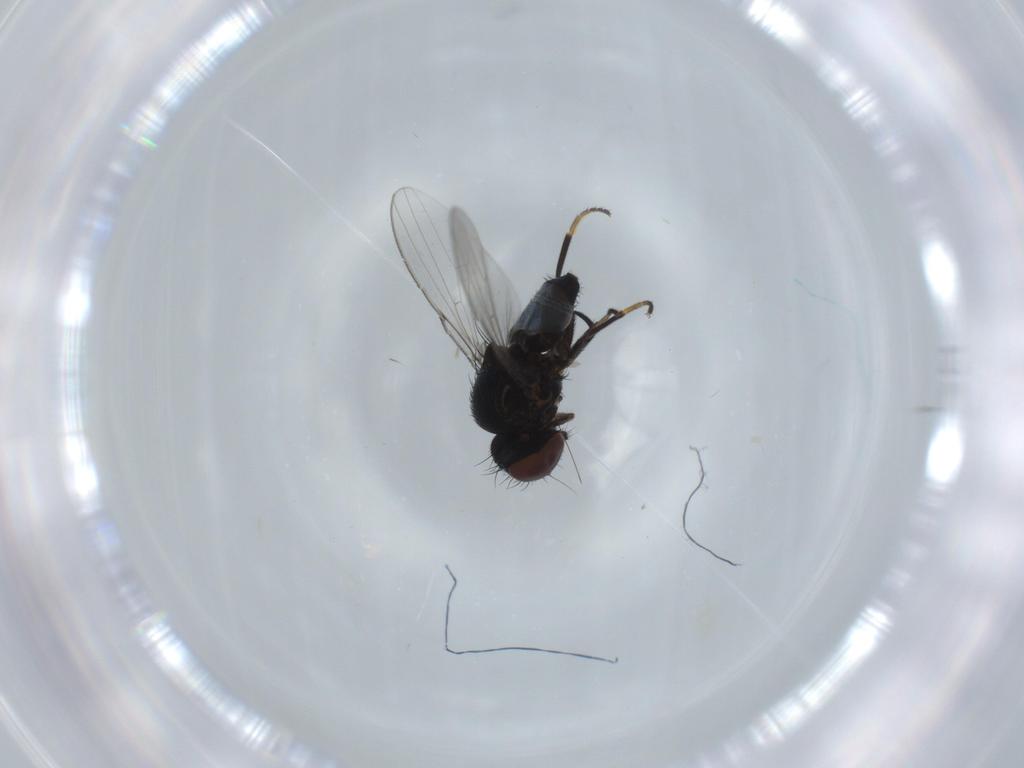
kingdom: Animalia
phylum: Arthropoda
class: Insecta
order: Diptera
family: Milichiidae
